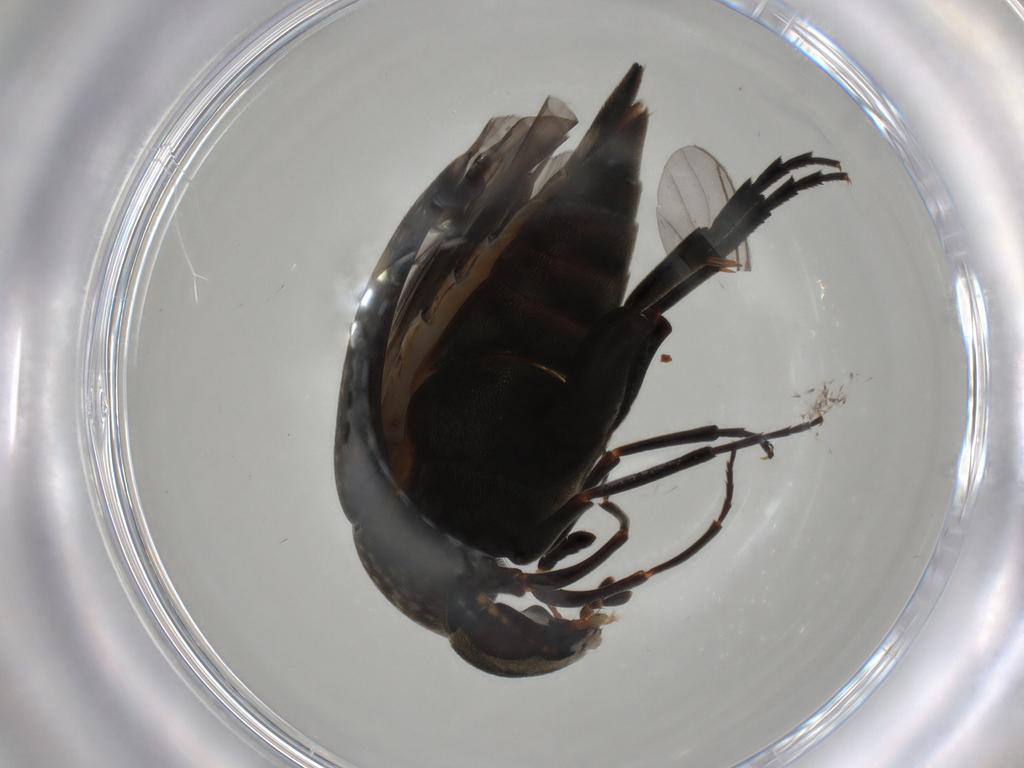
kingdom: Animalia
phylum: Arthropoda
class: Insecta
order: Coleoptera
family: Mordellidae
